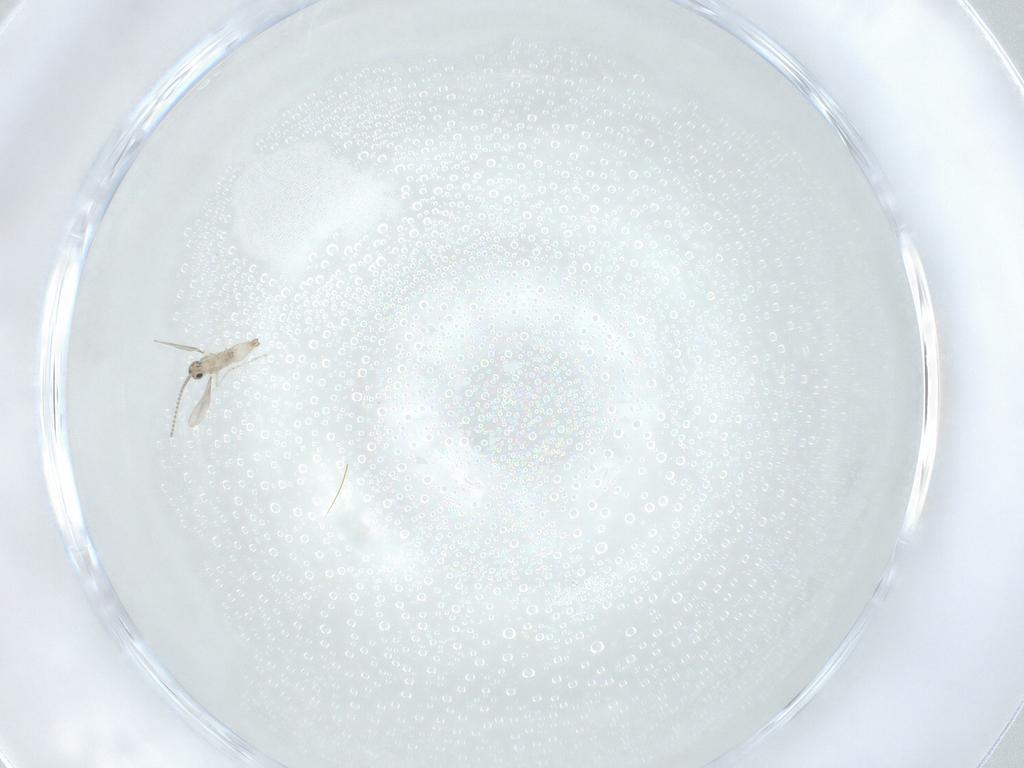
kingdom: Animalia
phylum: Arthropoda
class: Insecta
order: Diptera
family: Cecidomyiidae
